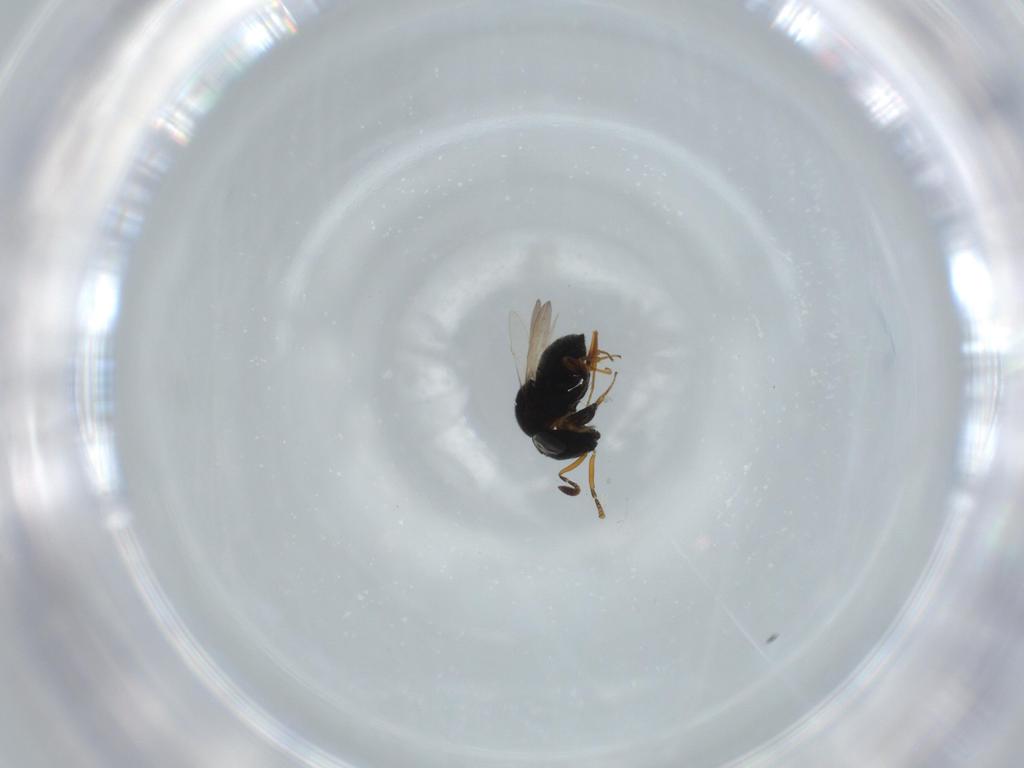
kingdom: Animalia
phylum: Arthropoda
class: Insecta
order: Hymenoptera
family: Scelionidae
